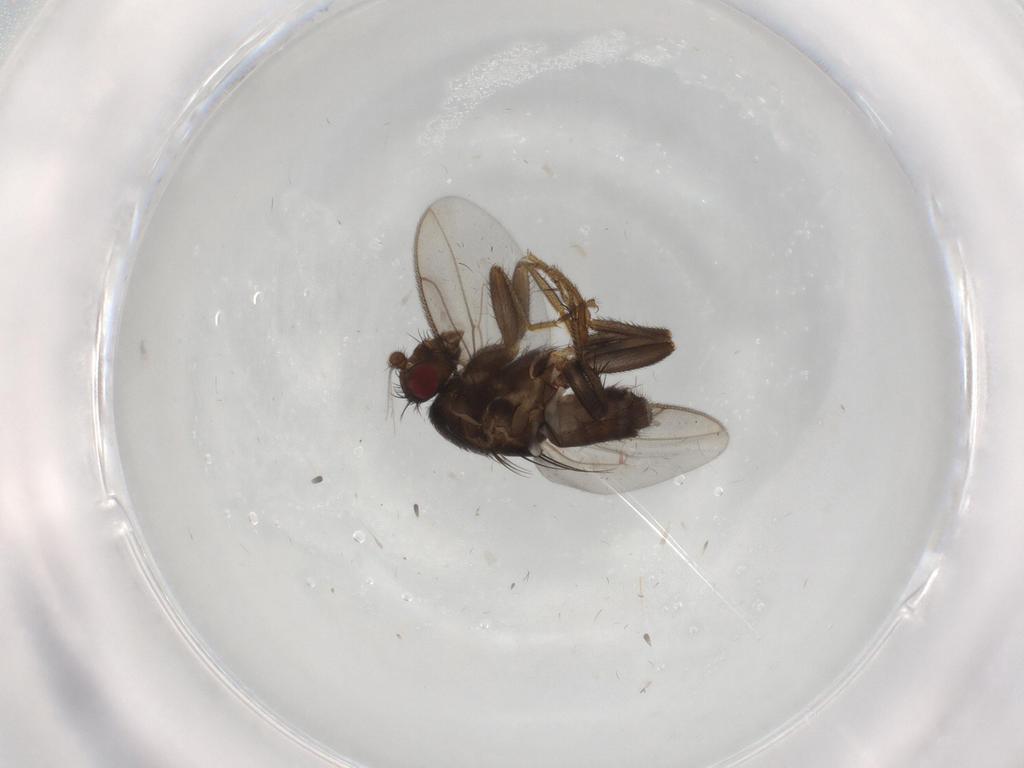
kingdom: Animalia
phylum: Arthropoda
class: Insecta
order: Diptera
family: Sphaeroceridae
